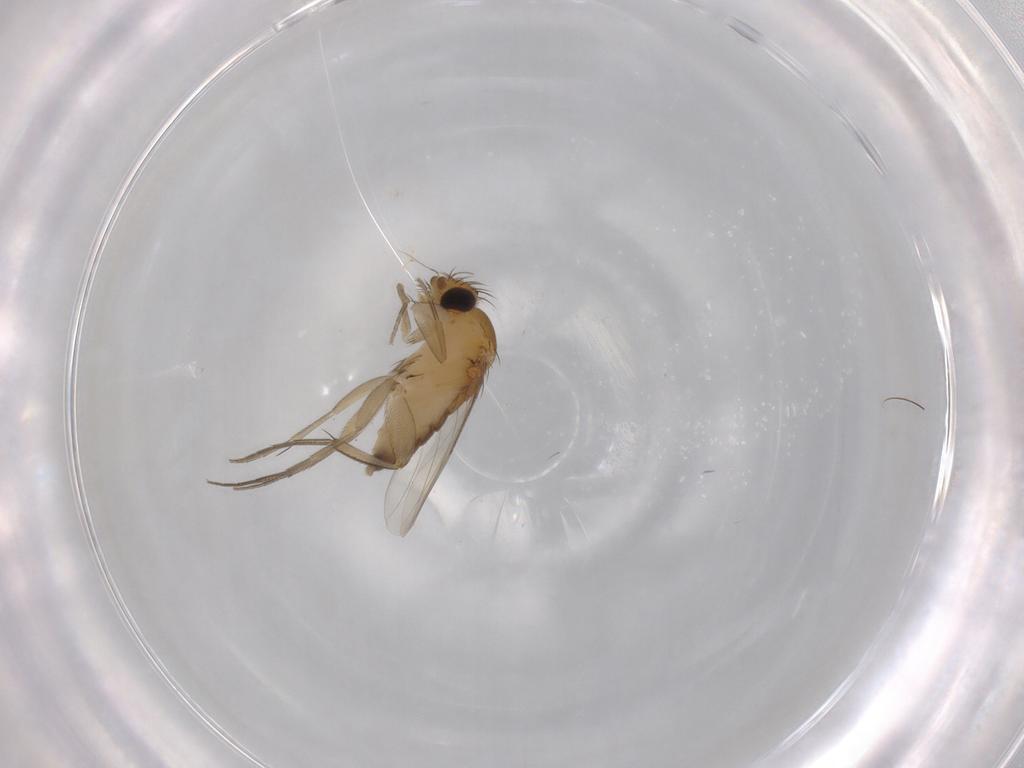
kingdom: Animalia
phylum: Arthropoda
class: Insecta
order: Diptera
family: Phoridae
